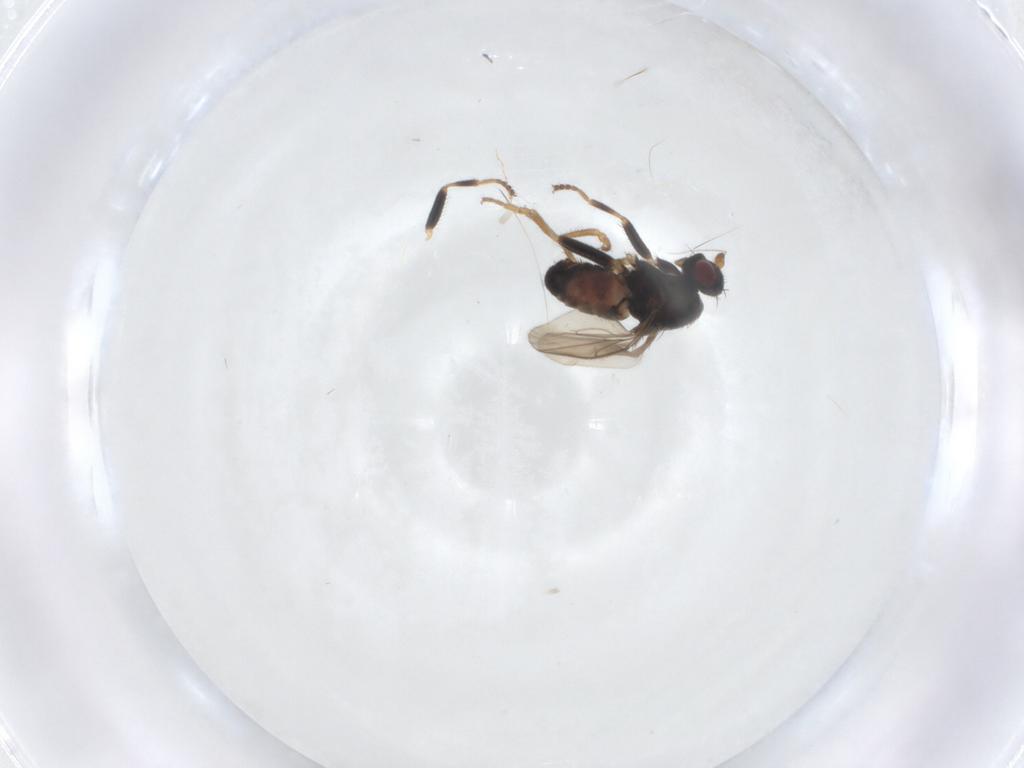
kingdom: Animalia
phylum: Arthropoda
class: Insecta
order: Diptera
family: Sphaeroceridae
